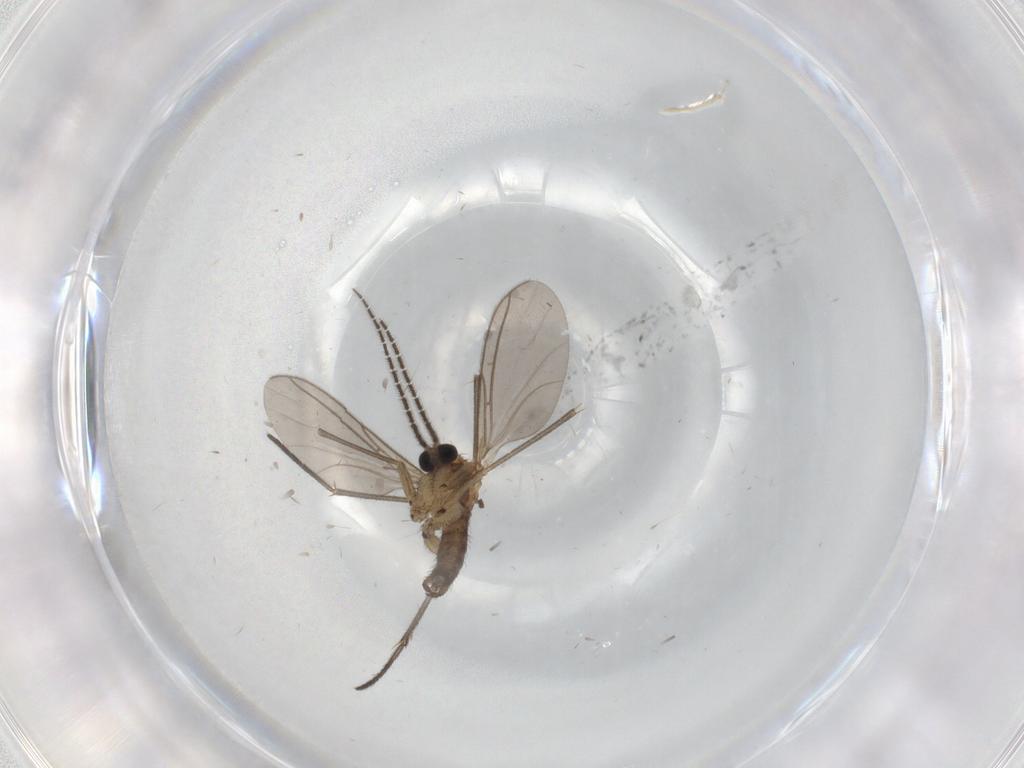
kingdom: Animalia
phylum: Arthropoda
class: Insecta
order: Diptera
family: Sciaridae
